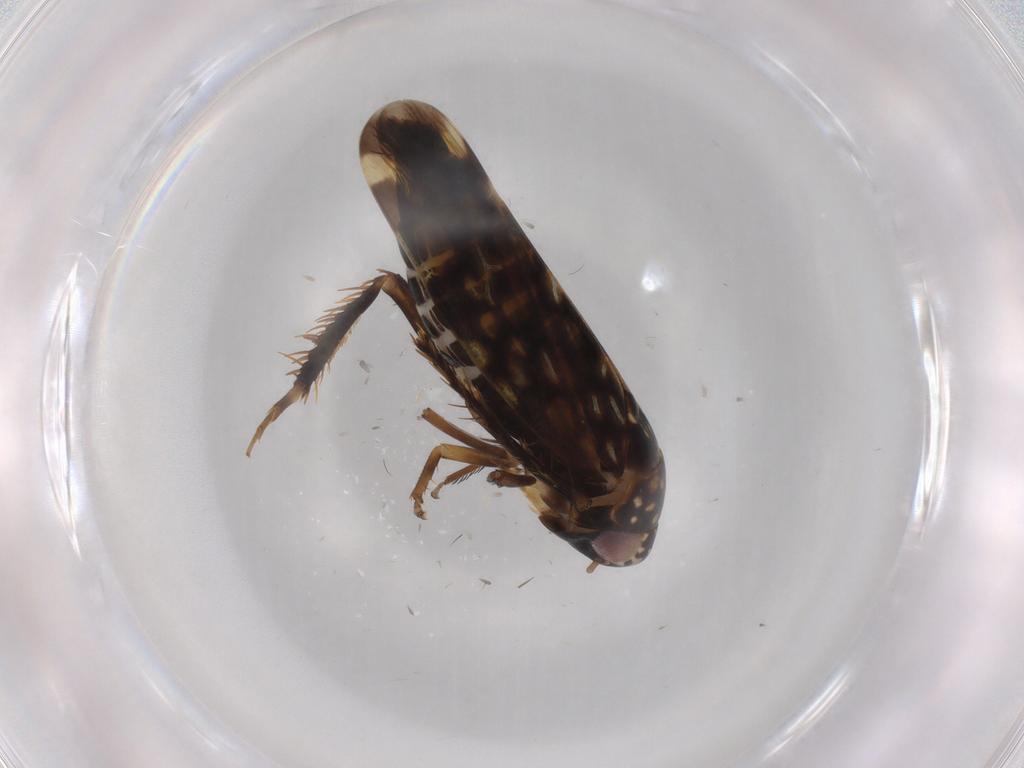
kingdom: Animalia
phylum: Arthropoda
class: Insecta
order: Hemiptera
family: Cicadellidae
